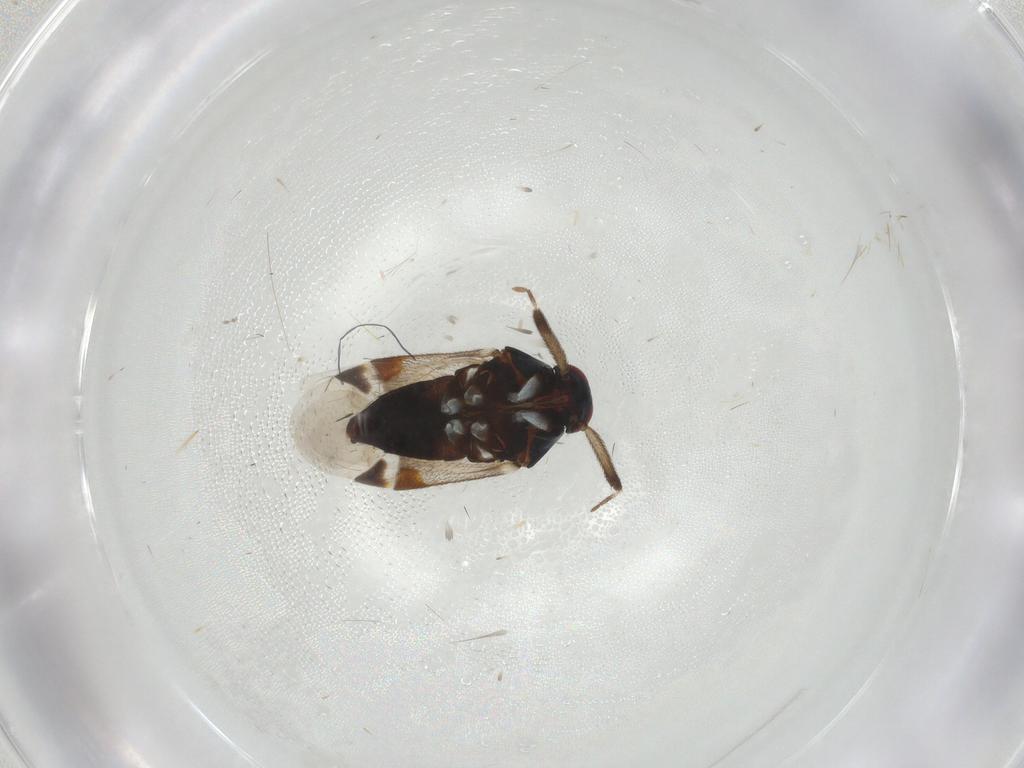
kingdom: Animalia
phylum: Arthropoda
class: Insecta
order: Hemiptera
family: Miridae
